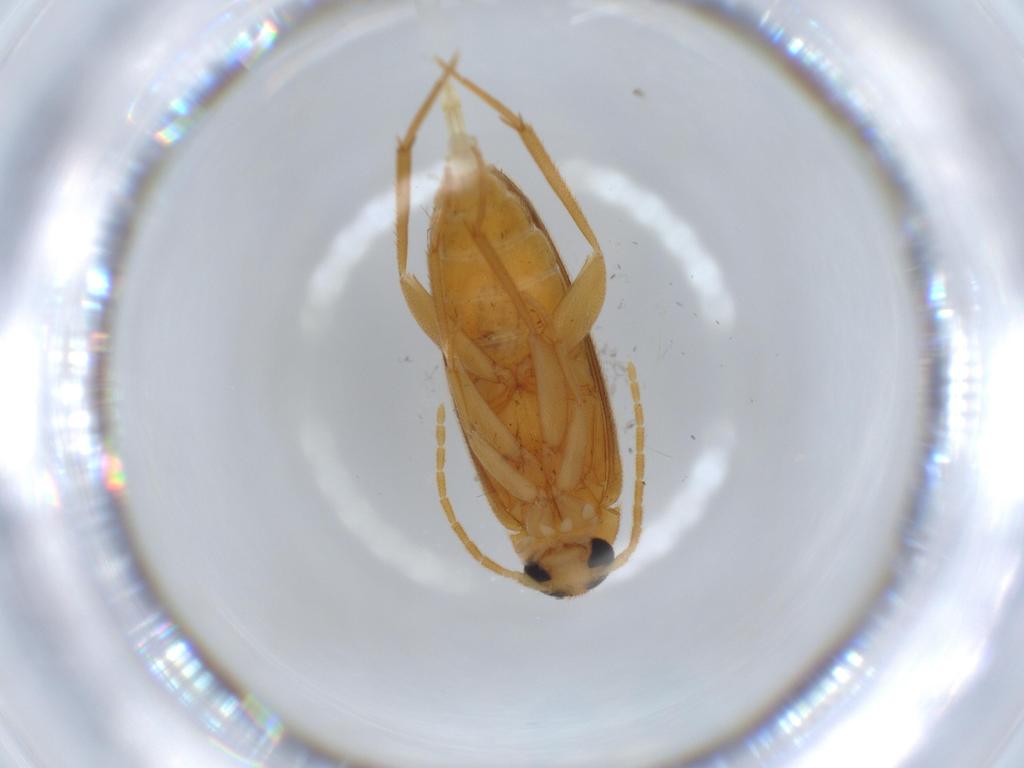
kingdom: Animalia
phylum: Arthropoda
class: Insecta
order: Coleoptera
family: Scraptiidae
